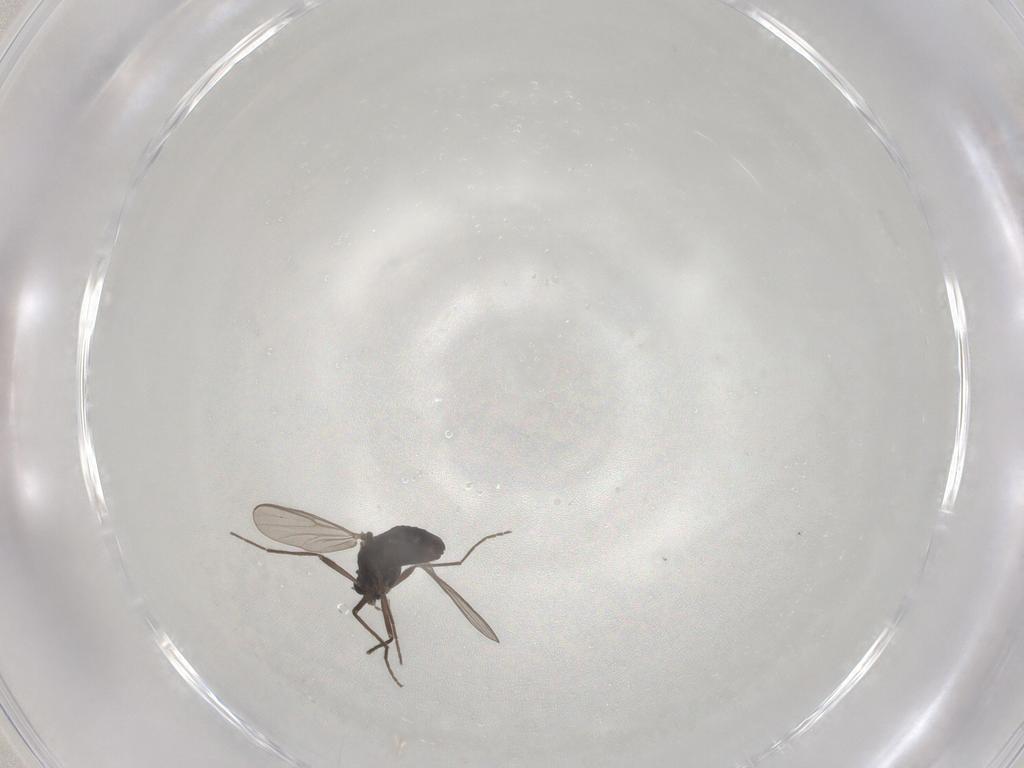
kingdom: Animalia
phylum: Arthropoda
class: Insecta
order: Diptera
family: Chironomidae
